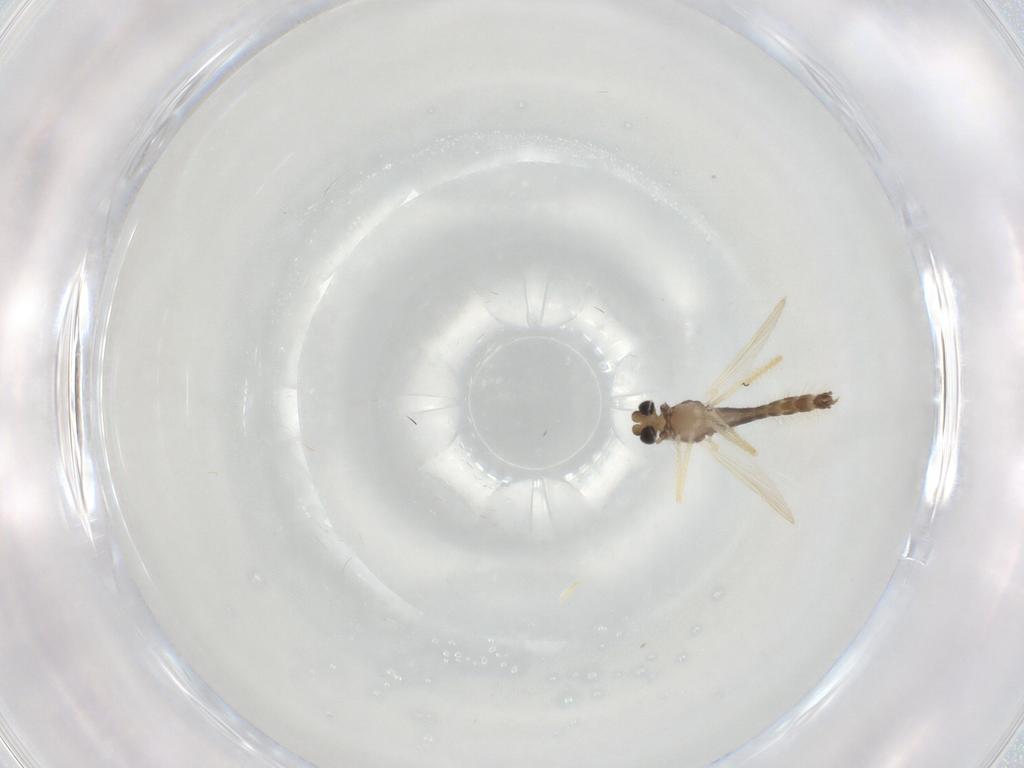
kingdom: Animalia
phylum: Arthropoda
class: Insecta
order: Diptera
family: Chironomidae
